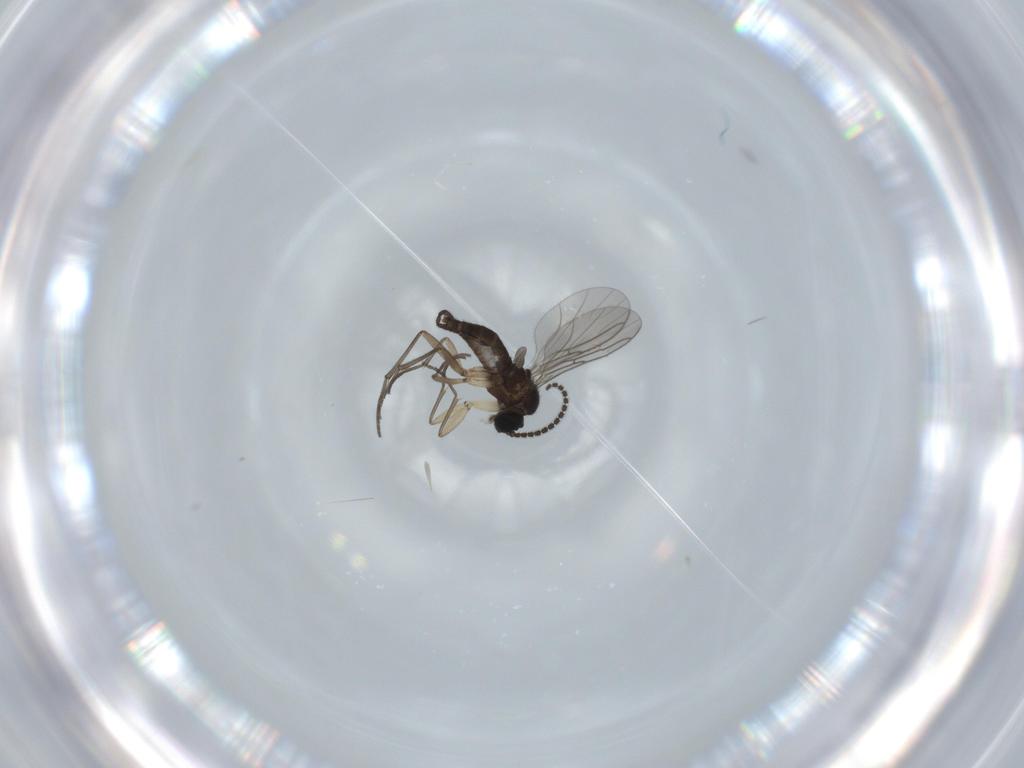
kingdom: Animalia
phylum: Arthropoda
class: Insecta
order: Diptera
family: Sciaridae
